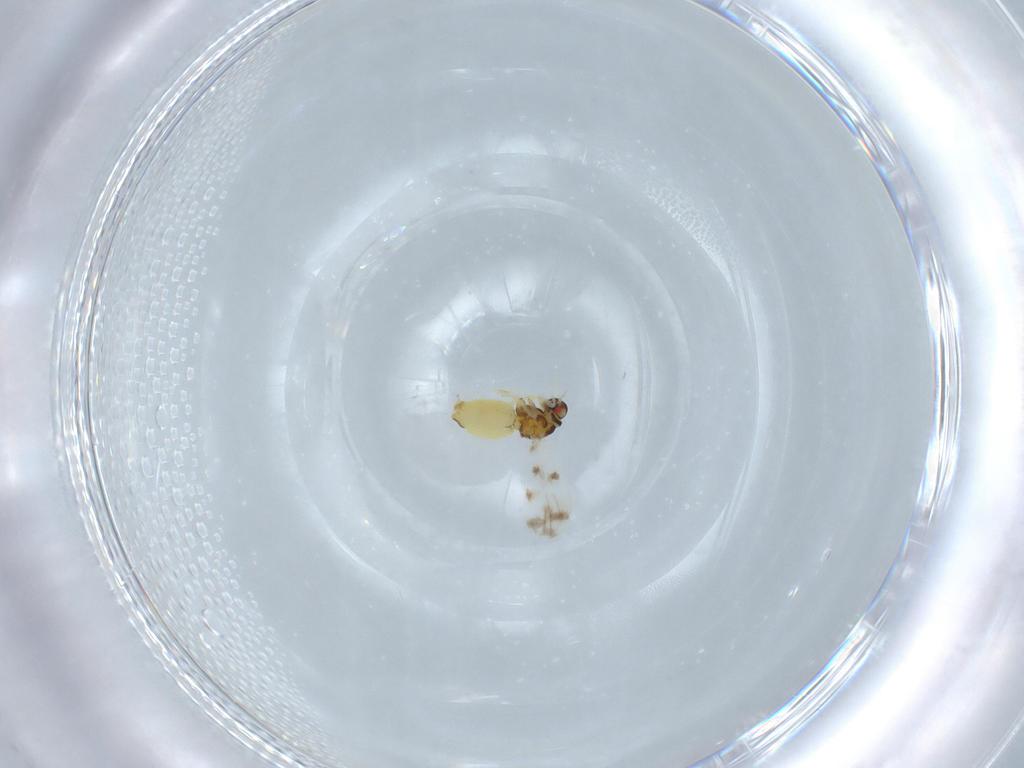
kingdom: Animalia
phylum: Arthropoda
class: Insecta
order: Hemiptera
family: Aleyrodidae
